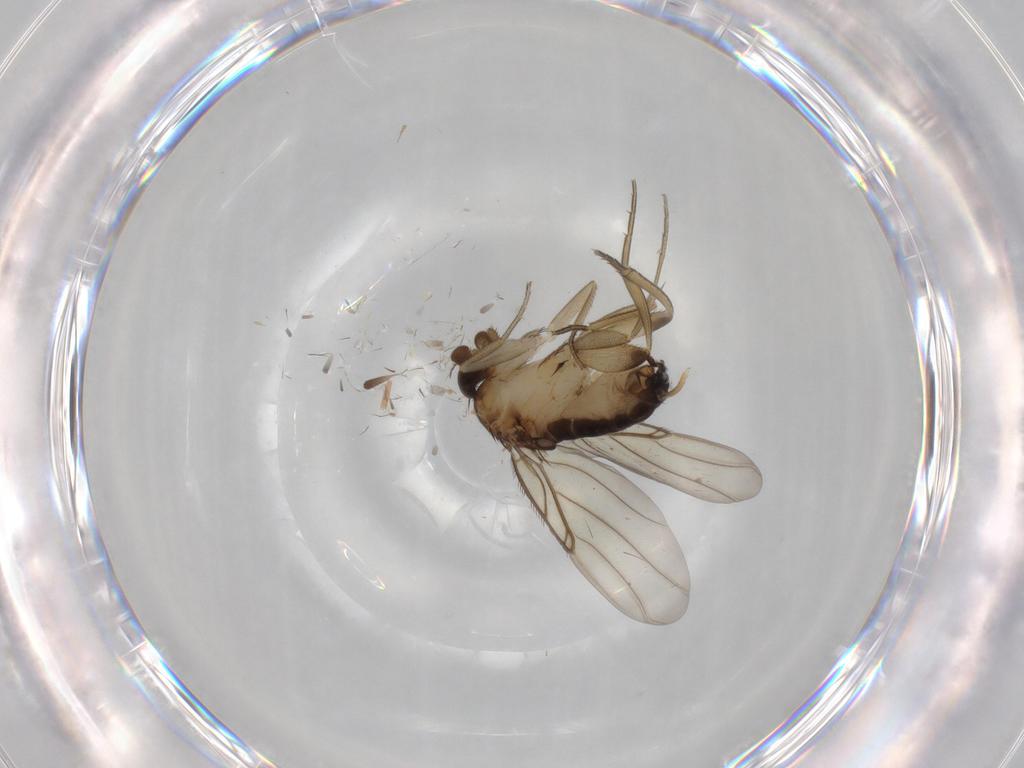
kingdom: Animalia
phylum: Arthropoda
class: Insecta
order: Diptera
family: Phoridae
